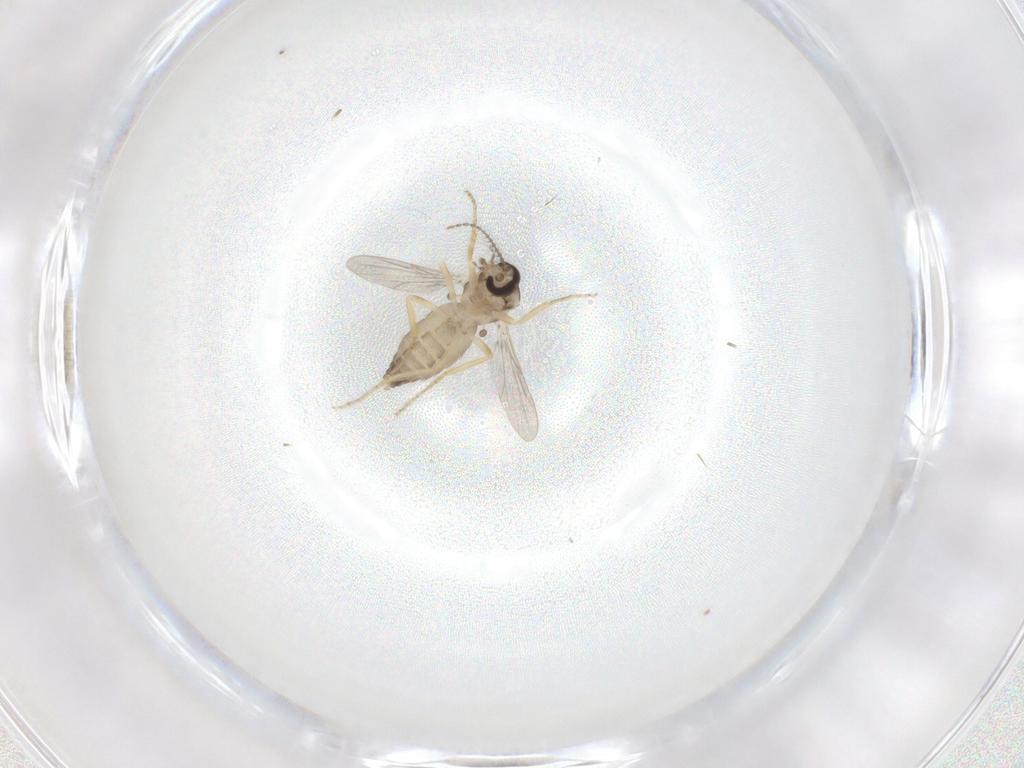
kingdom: Animalia
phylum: Arthropoda
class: Insecta
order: Diptera
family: Ceratopogonidae
